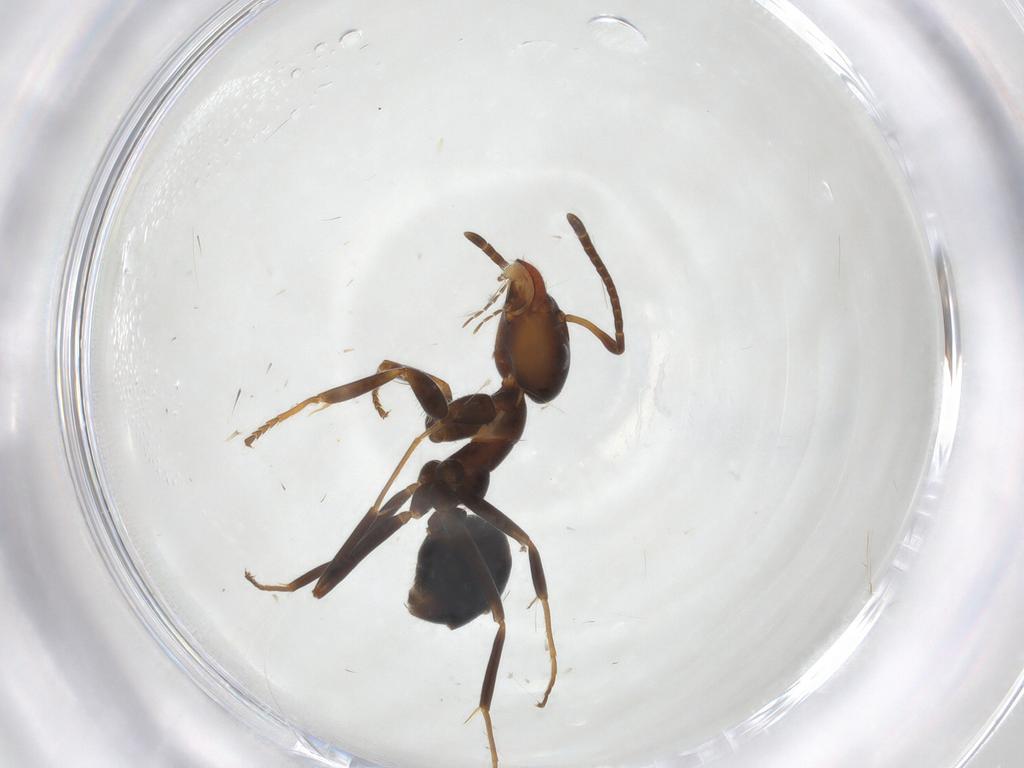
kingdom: Animalia
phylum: Arthropoda
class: Insecta
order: Hymenoptera
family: Formicidae
